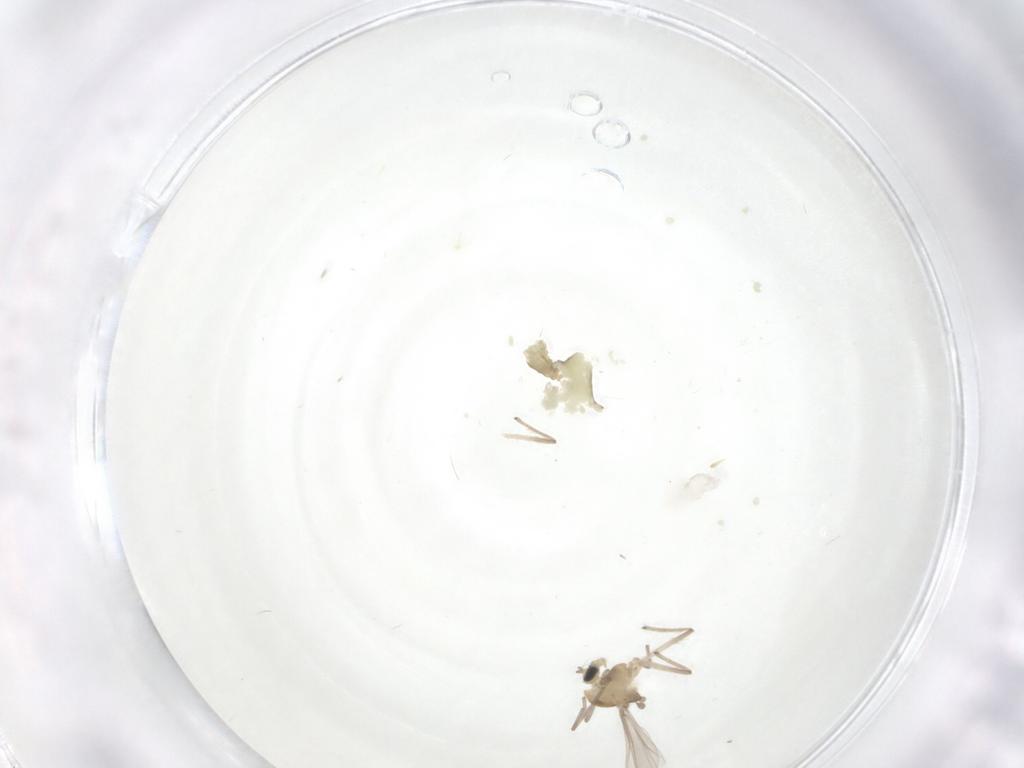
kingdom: Animalia
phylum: Arthropoda
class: Insecta
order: Diptera
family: Chironomidae
